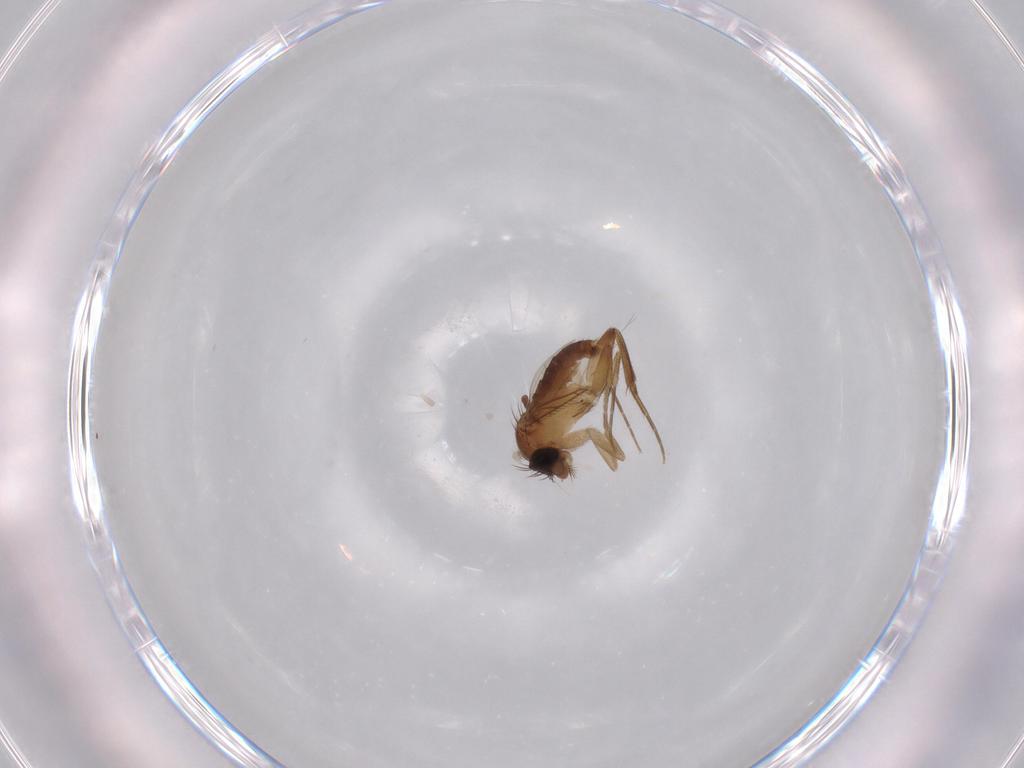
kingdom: Animalia
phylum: Arthropoda
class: Insecta
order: Diptera
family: Phoridae
